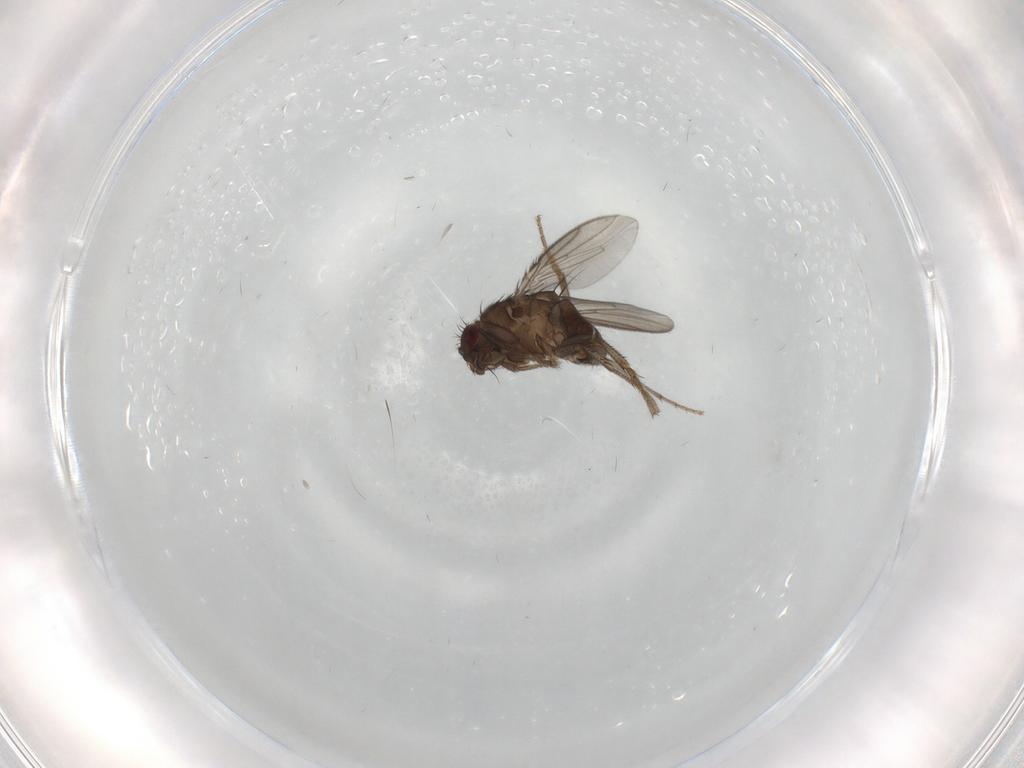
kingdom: Animalia
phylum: Arthropoda
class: Insecta
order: Diptera
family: Sphaeroceridae
